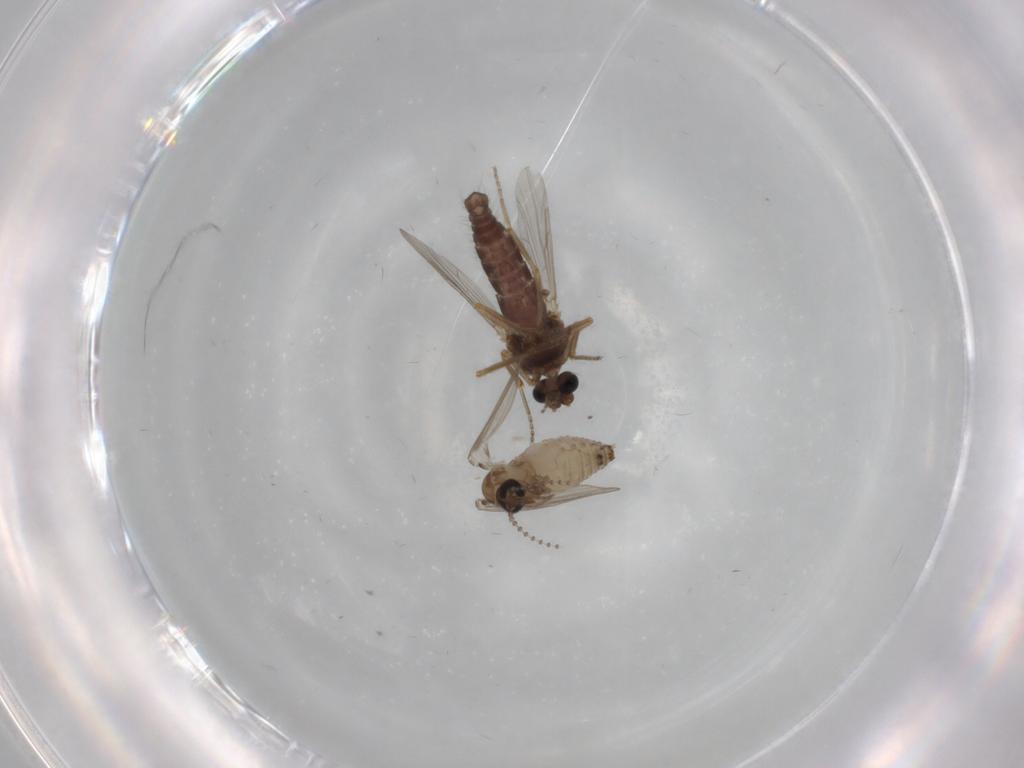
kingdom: Animalia
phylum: Arthropoda
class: Insecta
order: Diptera
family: Psychodidae
